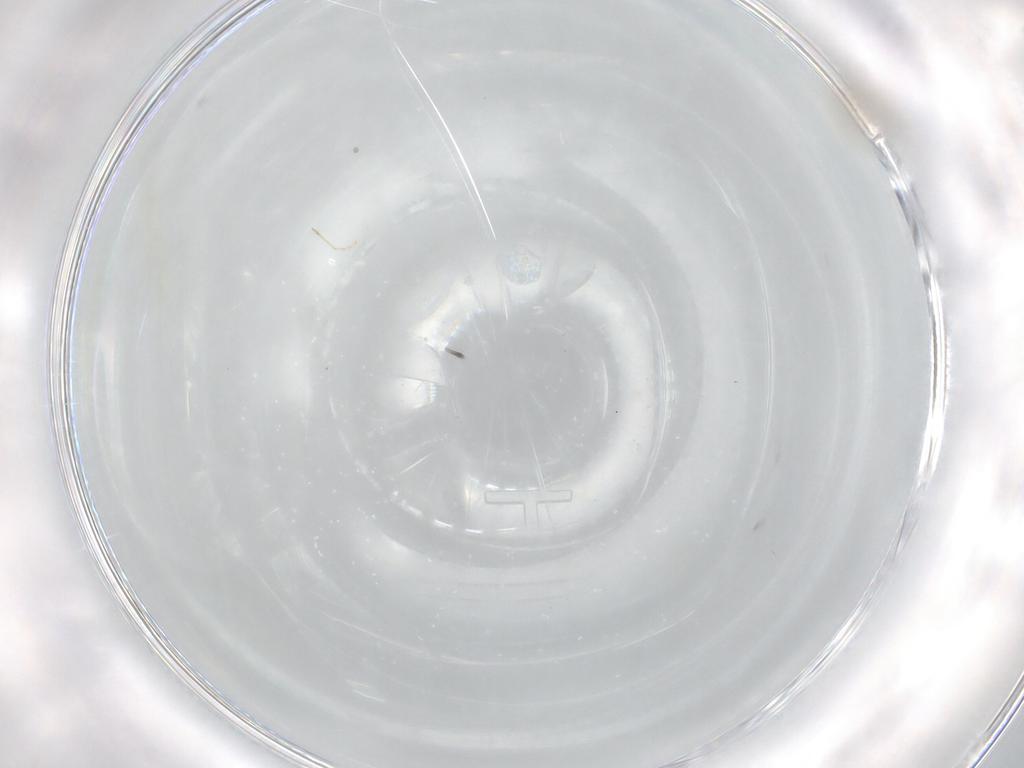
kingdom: Animalia
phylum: Arthropoda
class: Insecta
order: Diptera
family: Cecidomyiidae
